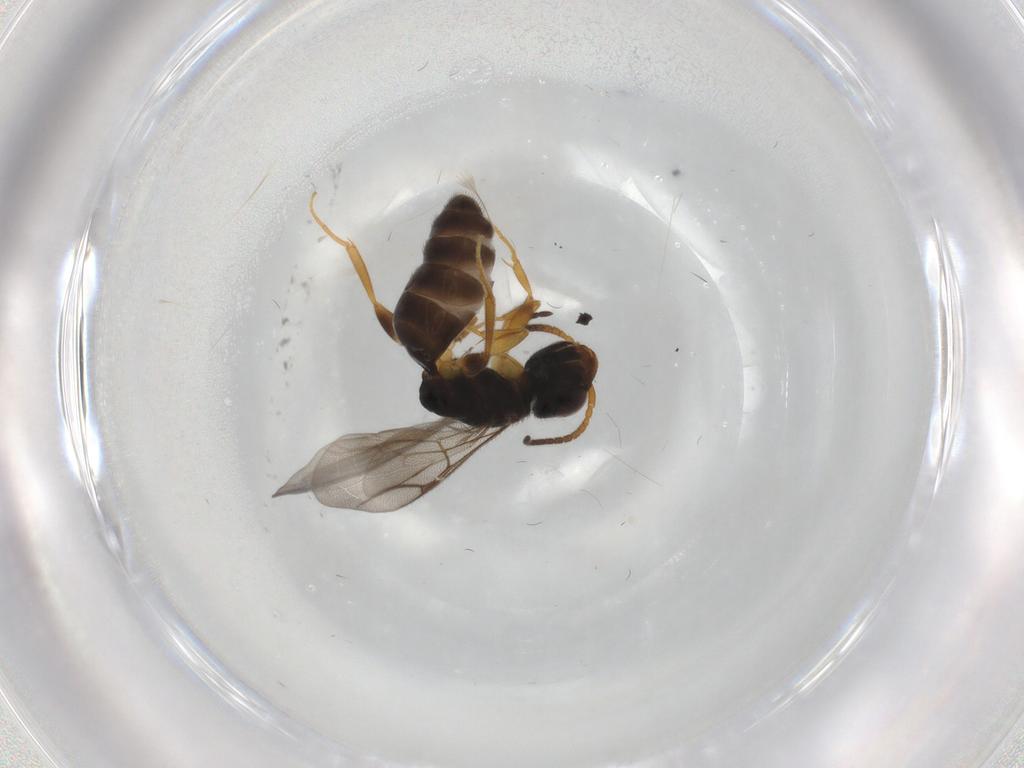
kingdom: Animalia
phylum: Arthropoda
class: Insecta
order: Hymenoptera
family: Bethylidae
